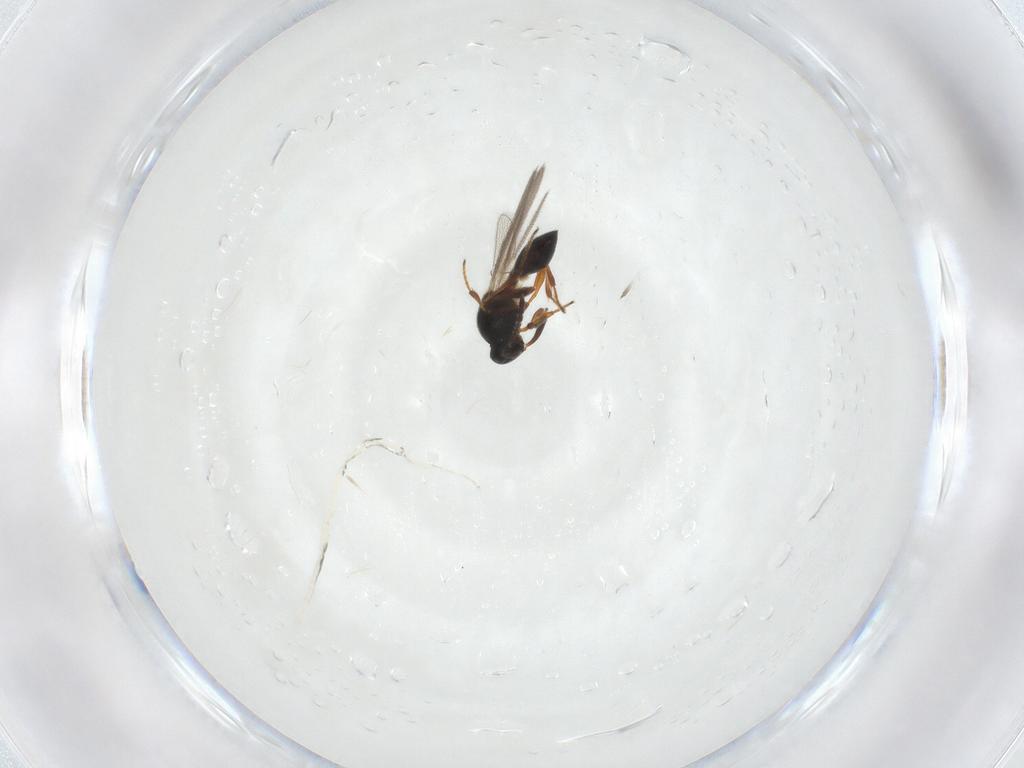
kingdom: Animalia
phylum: Arthropoda
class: Insecta
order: Hymenoptera
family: Platygastridae
